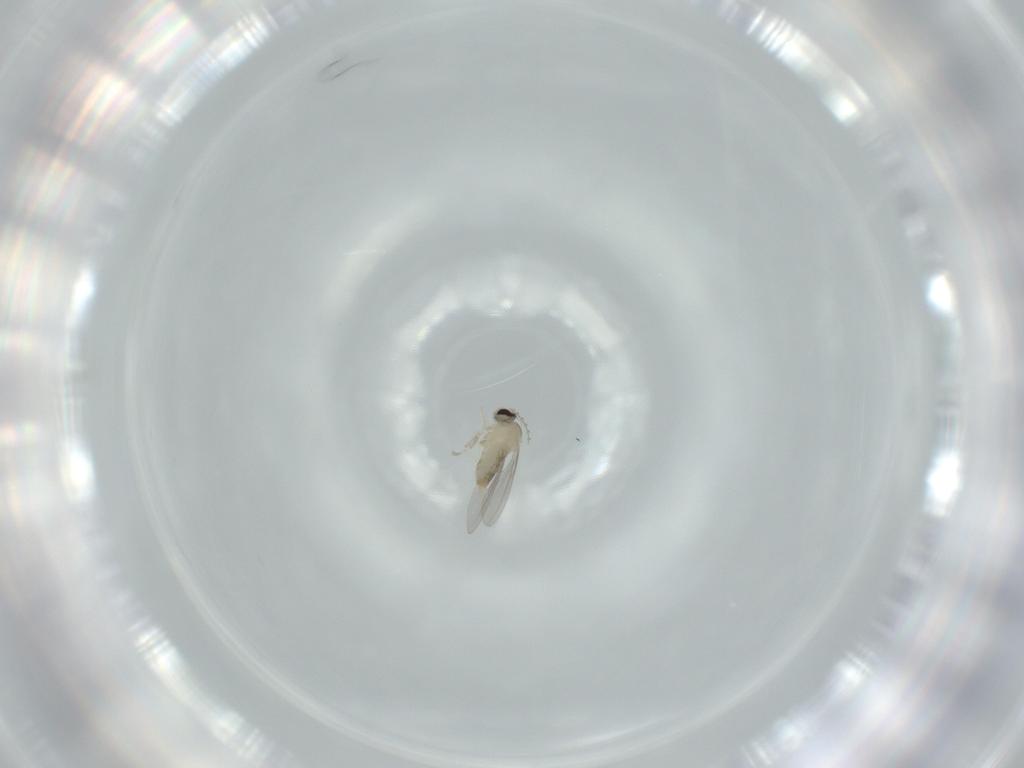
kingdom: Animalia
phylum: Arthropoda
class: Insecta
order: Diptera
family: Cecidomyiidae
